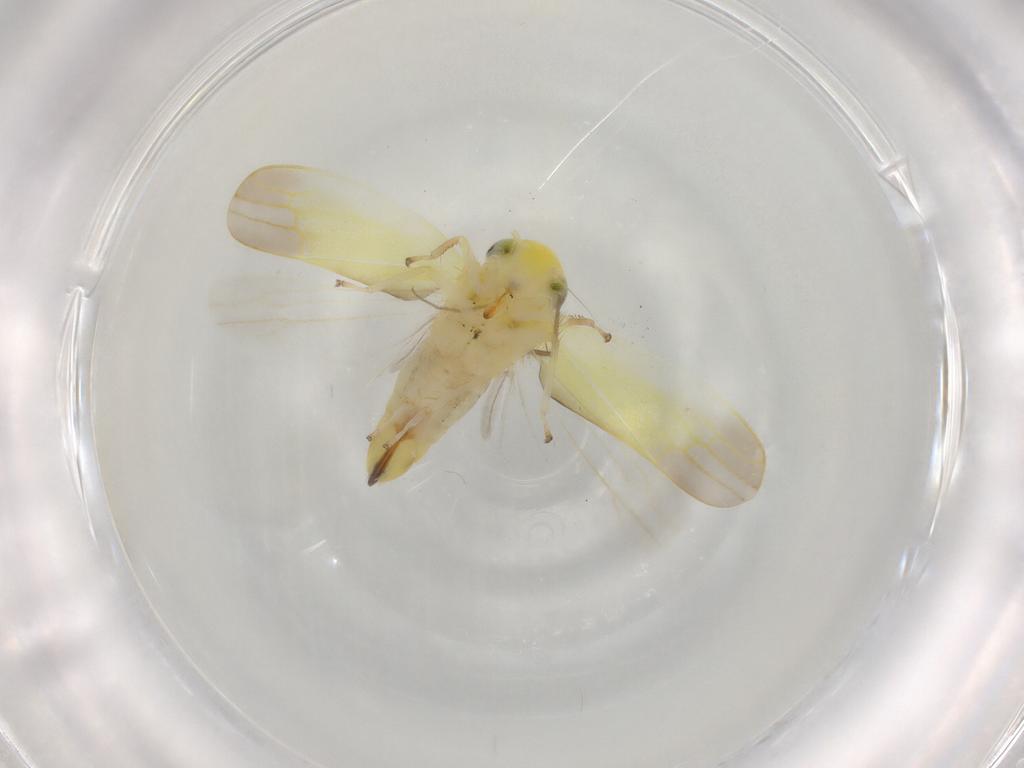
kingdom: Animalia
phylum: Arthropoda
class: Insecta
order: Hemiptera
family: Cicadellidae
